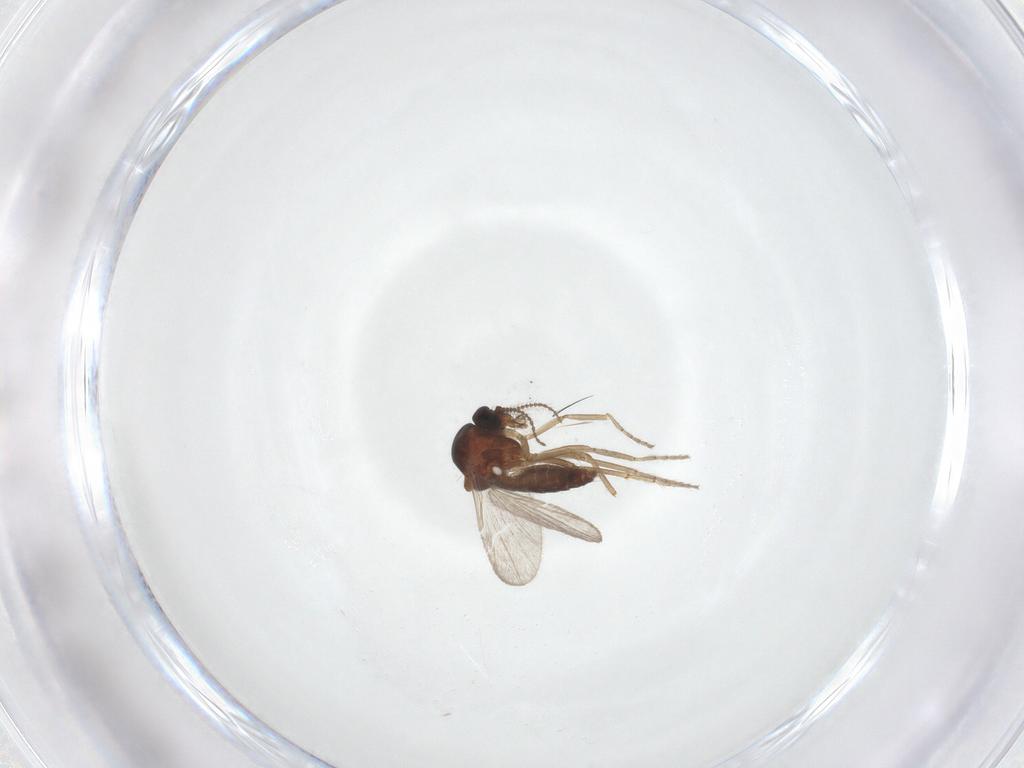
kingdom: Animalia
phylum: Arthropoda
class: Insecta
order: Diptera
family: Ceratopogonidae
